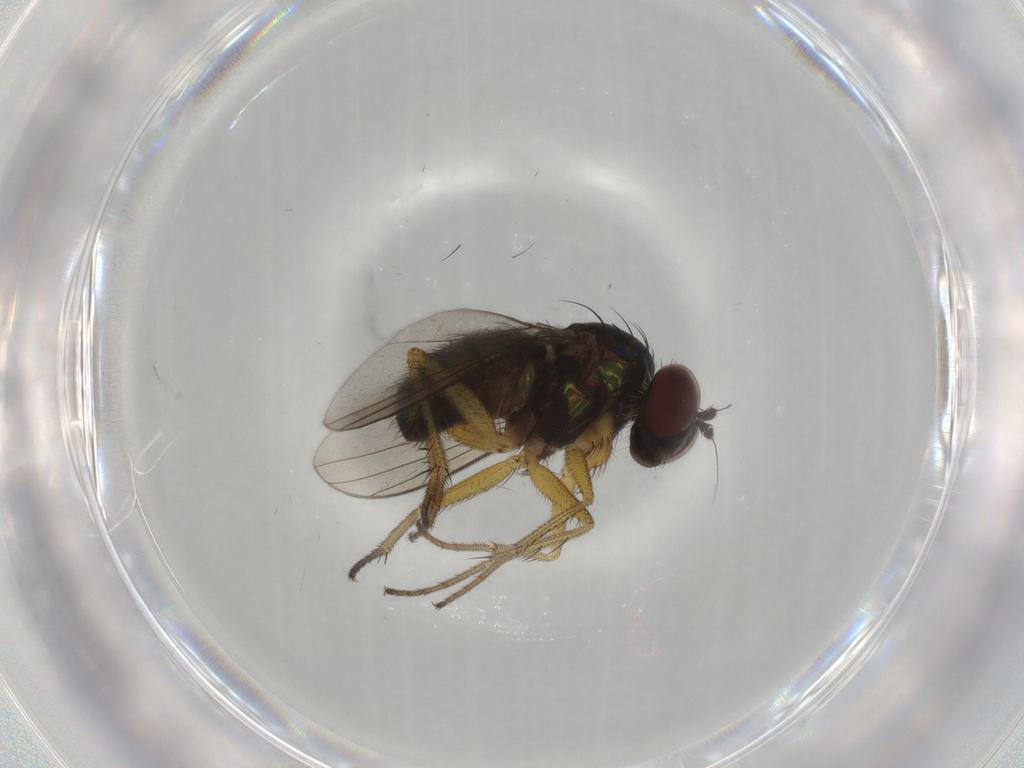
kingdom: Animalia
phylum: Arthropoda
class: Insecta
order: Diptera
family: Dolichopodidae
